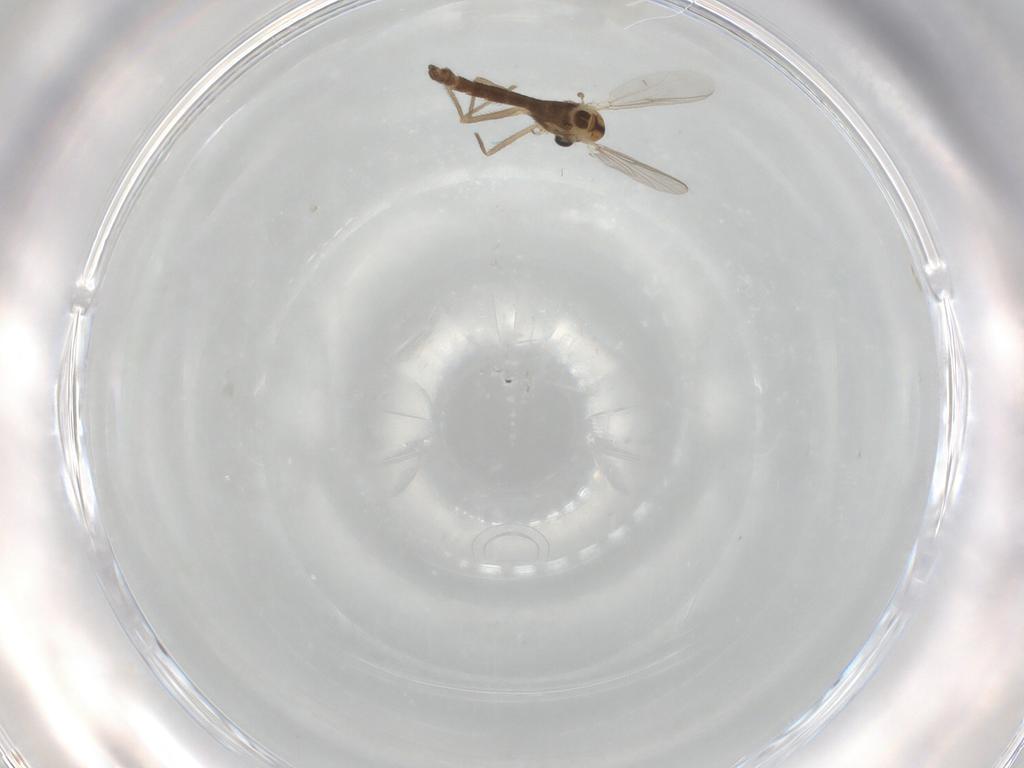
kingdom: Animalia
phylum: Arthropoda
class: Insecta
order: Diptera
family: Chironomidae
